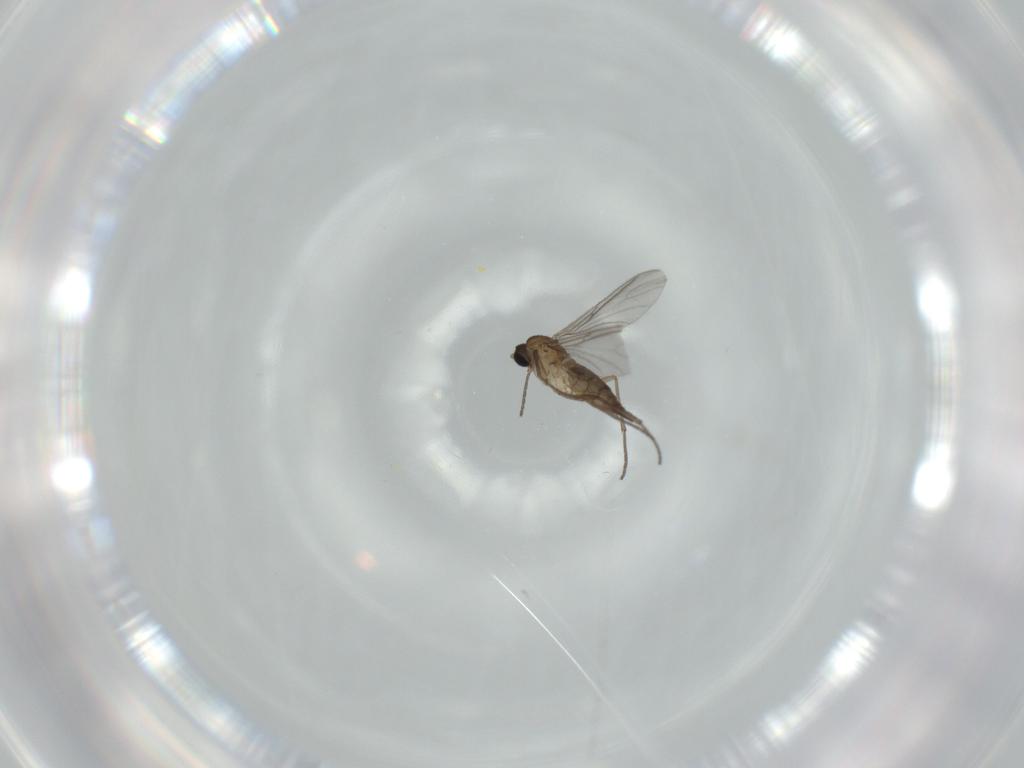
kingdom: Animalia
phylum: Arthropoda
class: Insecta
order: Diptera
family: Sciaridae
